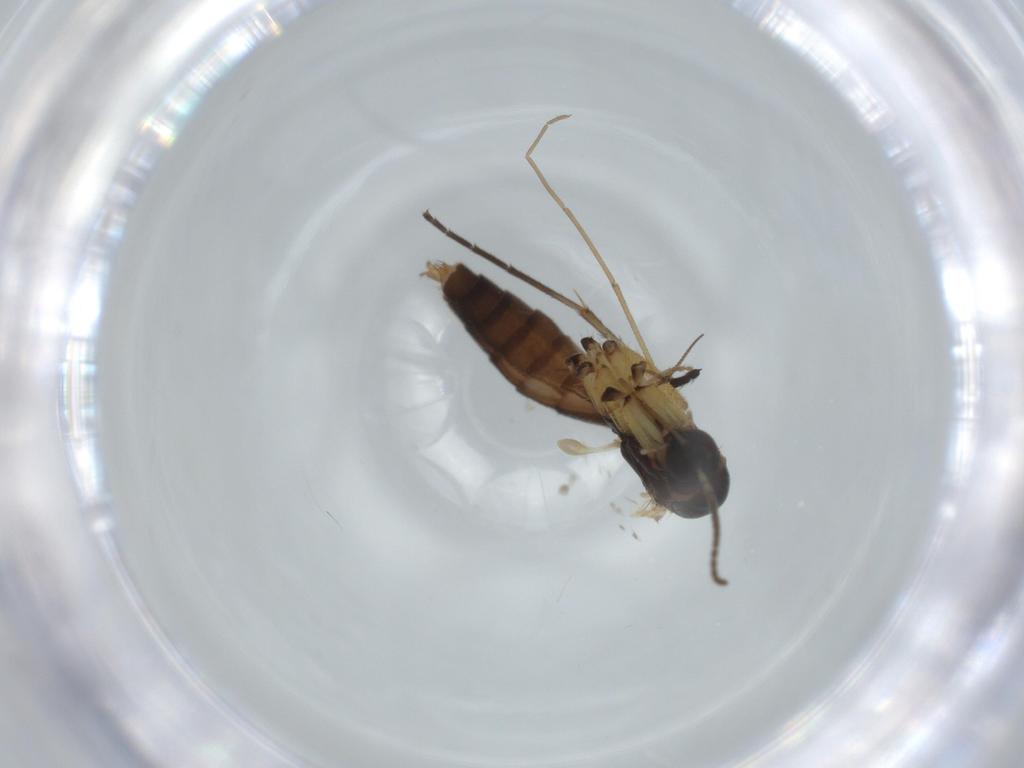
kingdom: Animalia
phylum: Arthropoda
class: Insecta
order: Diptera
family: Mycetophilidae
